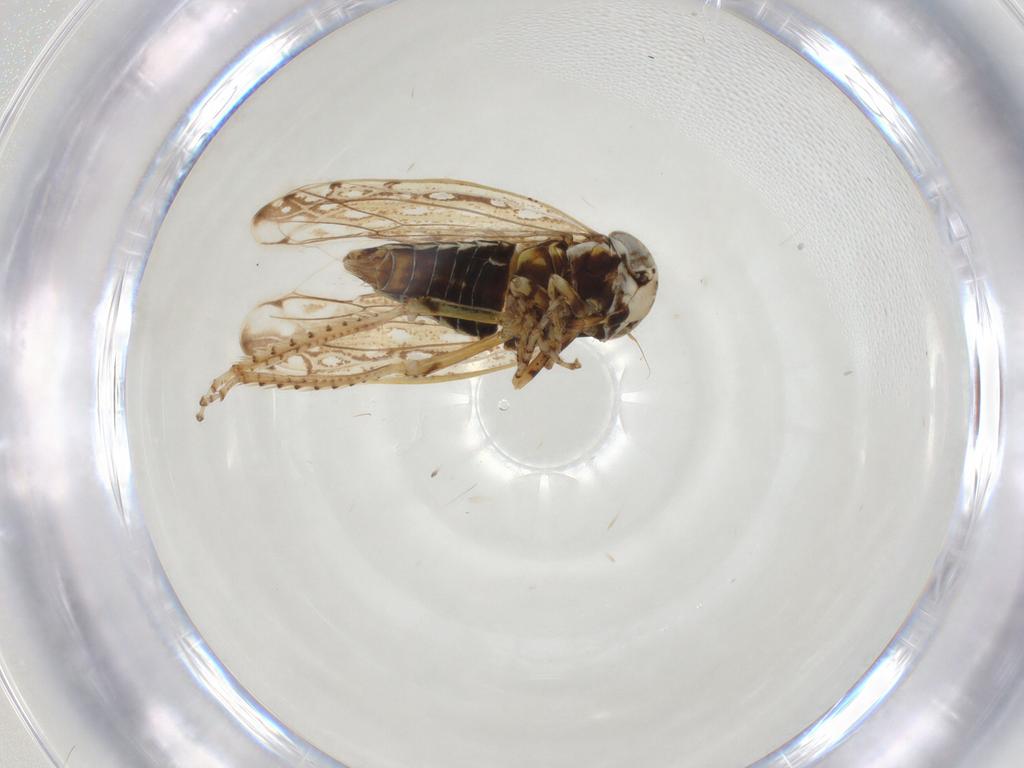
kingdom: Animalia
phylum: Arthropoda
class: Insecta
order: Hemiptera
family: Cicadellidae
